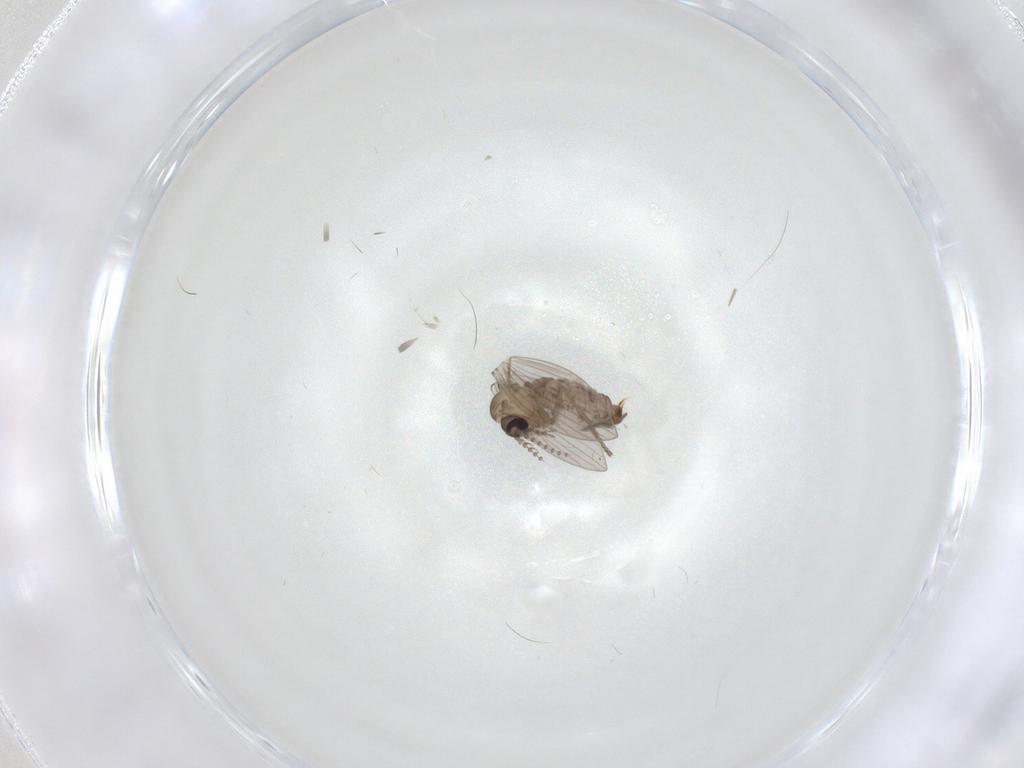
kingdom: Animalia
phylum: Arthropoda
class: Insecta
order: Diptera
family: Cecidomyiidae
